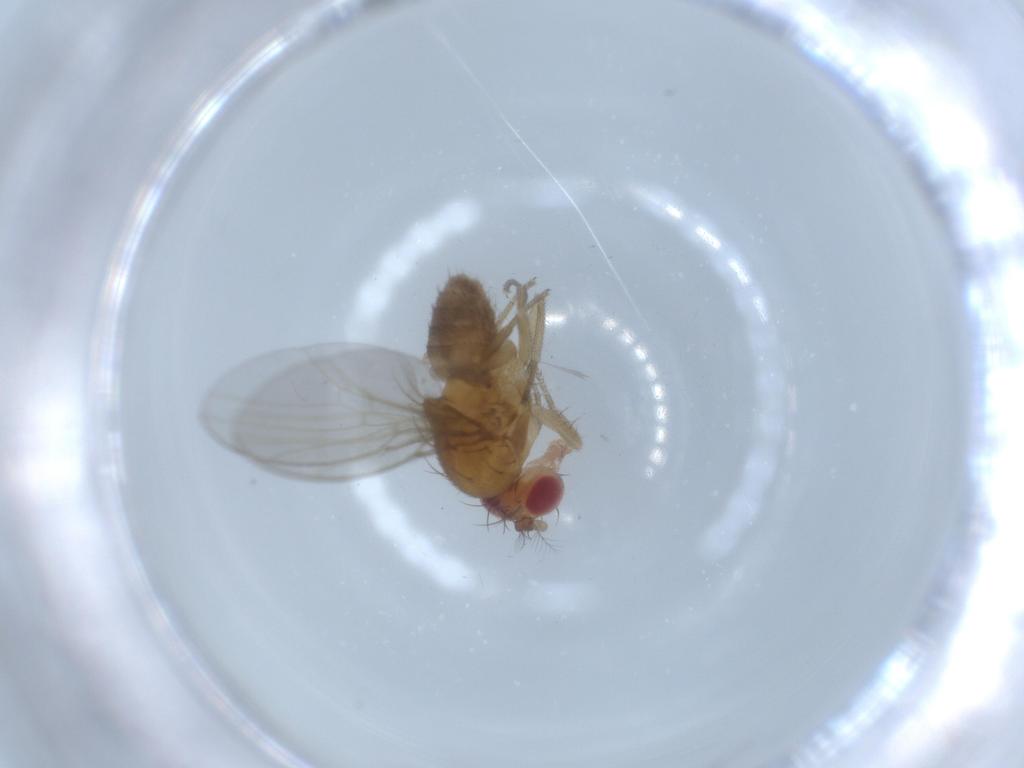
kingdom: Animalia
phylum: Arthropoda
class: Insecta
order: Diptera
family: Drosophilidae
